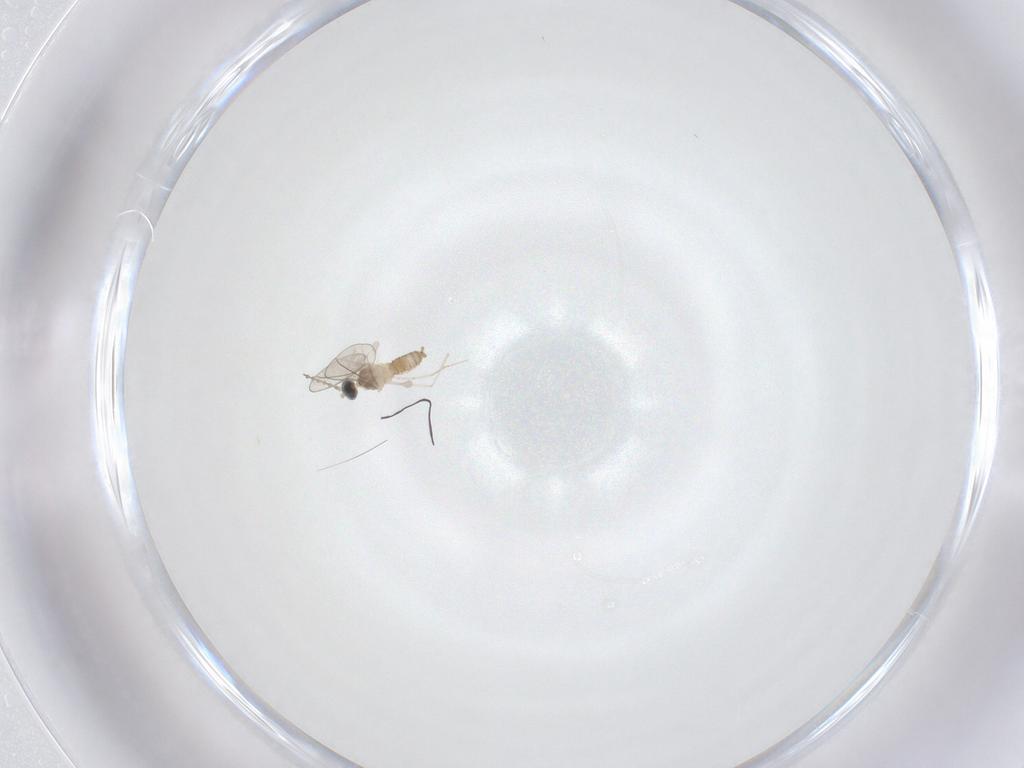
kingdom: Animalia
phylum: Arthropoda
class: Insecta
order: Diptera
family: Cecidomyiidae
